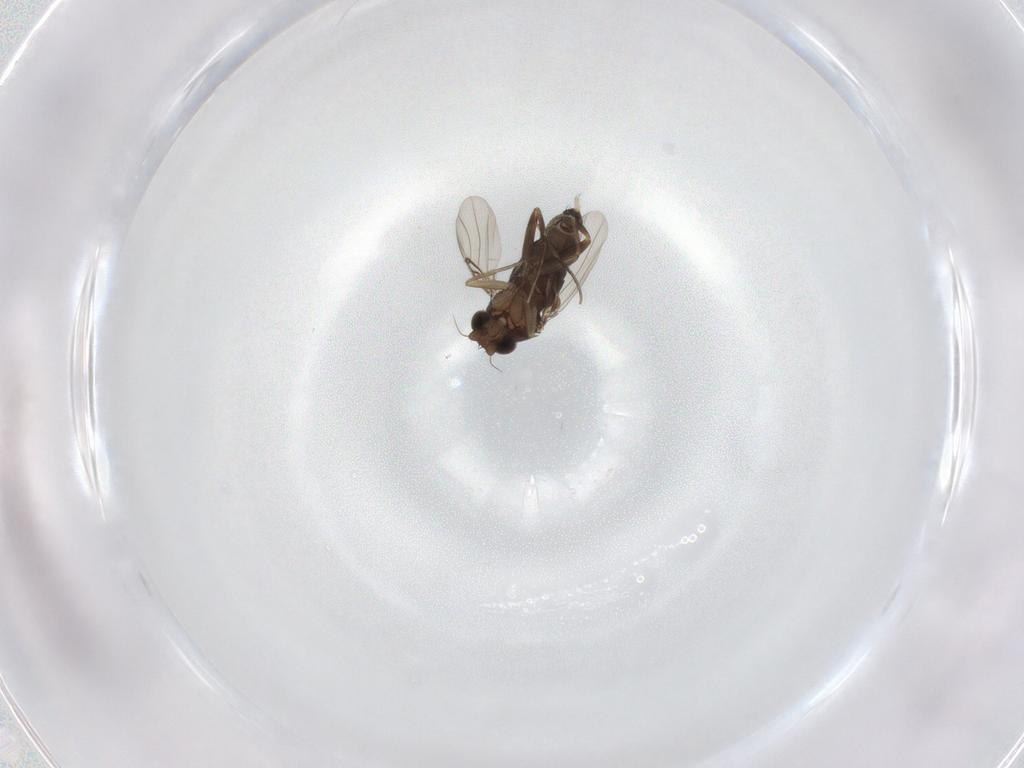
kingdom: Animalia
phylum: Arthropoda
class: Insecta
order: Diptera
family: Phoridae
